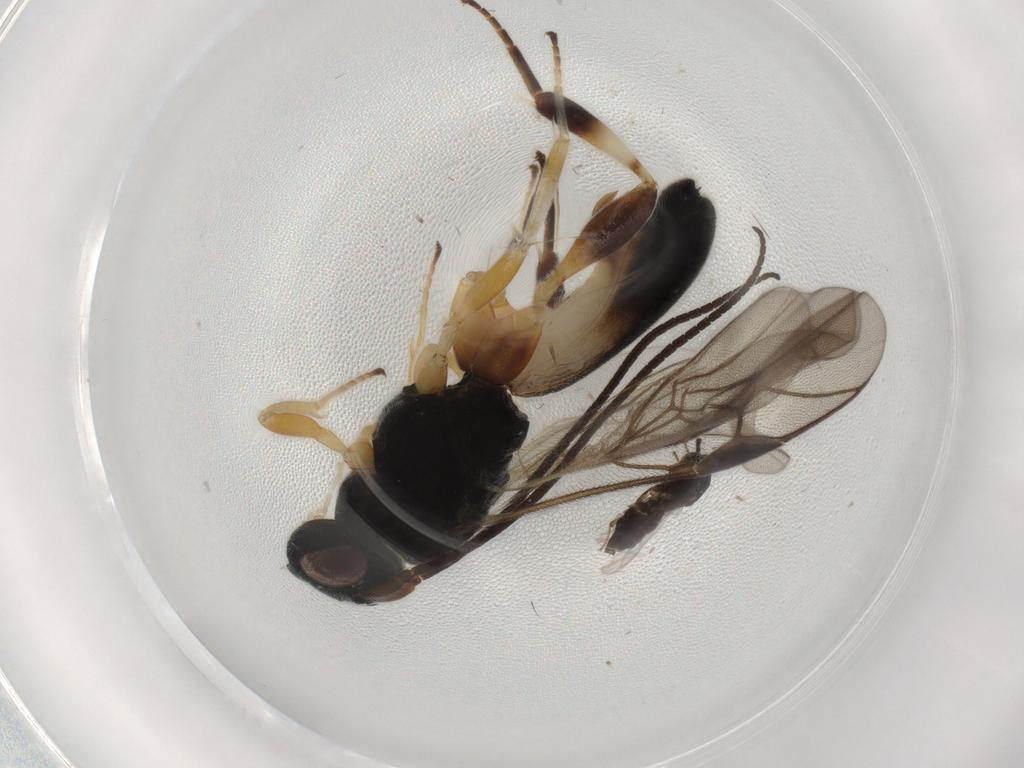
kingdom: Animalia
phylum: Arthropoda
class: Insecta
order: Hymenoptera
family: Braconidae
